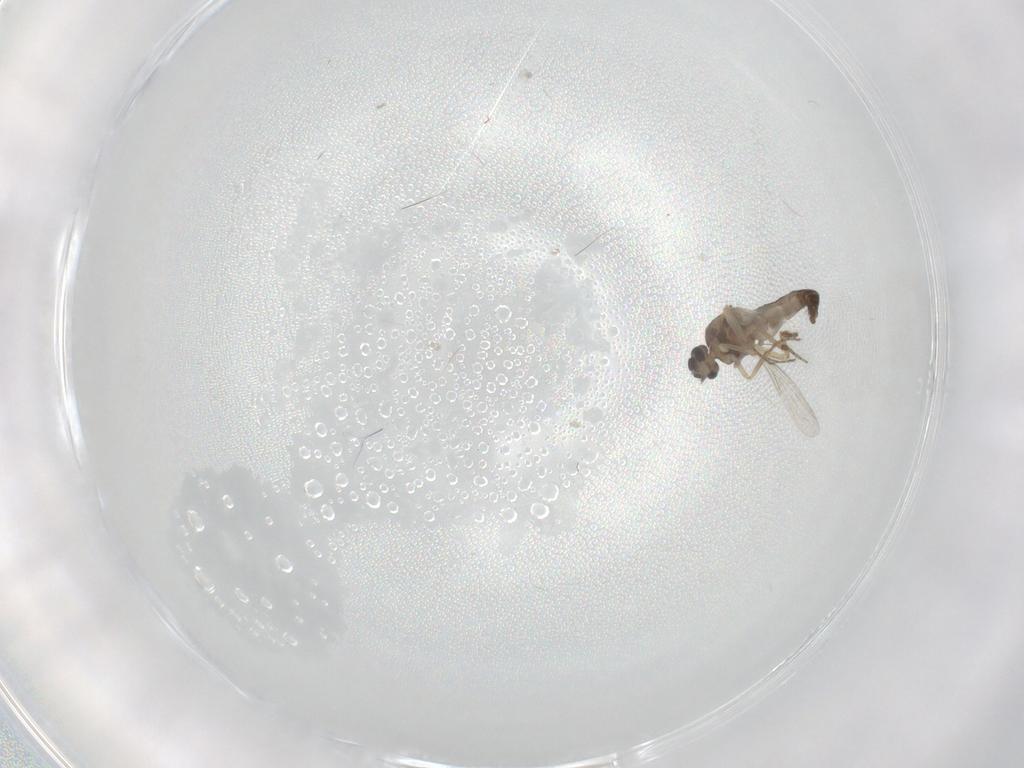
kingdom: Animalia
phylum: Arthropoda
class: Insecta
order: Diptera
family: Ceratopogonidae
